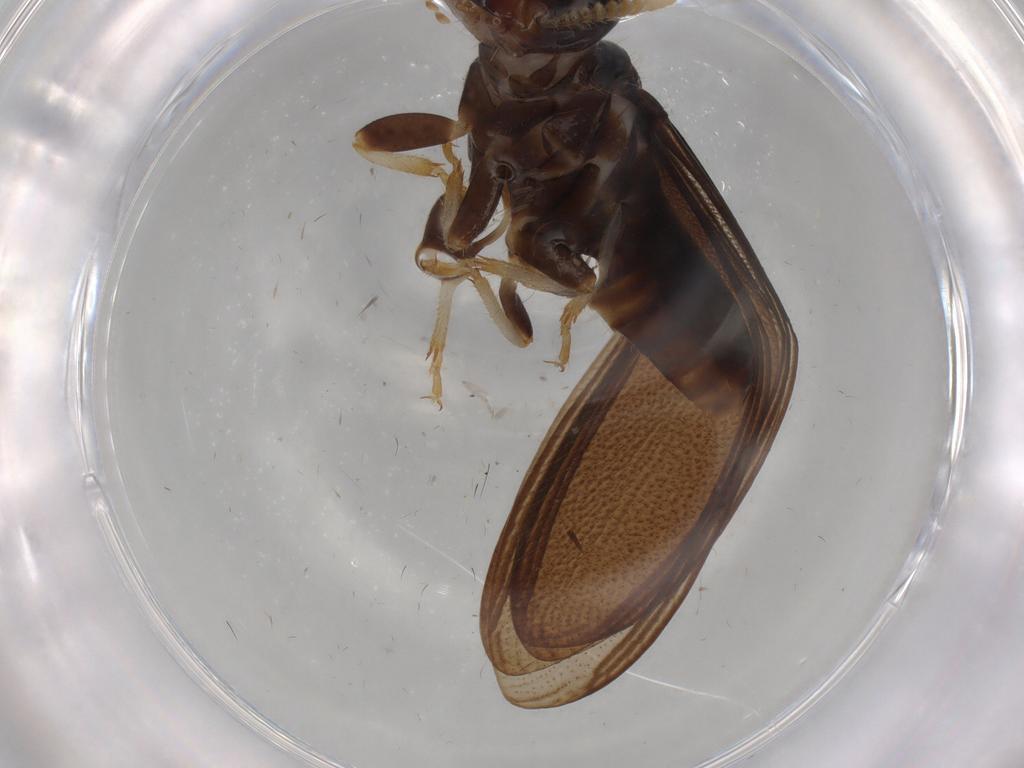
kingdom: Animalia
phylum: Arthropoda
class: Insecta
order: Blattodea
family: Kalotermitidae
